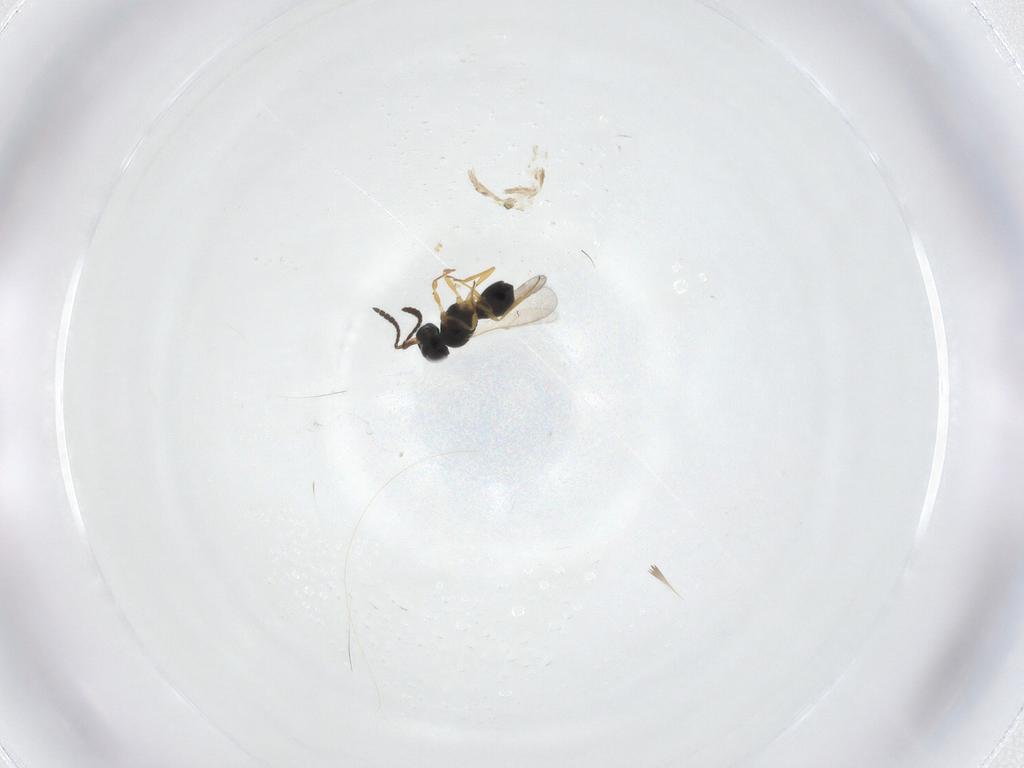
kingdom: Animalia
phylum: Arthropoda
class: Insecta
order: Hymenoptera
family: Scelionidae
